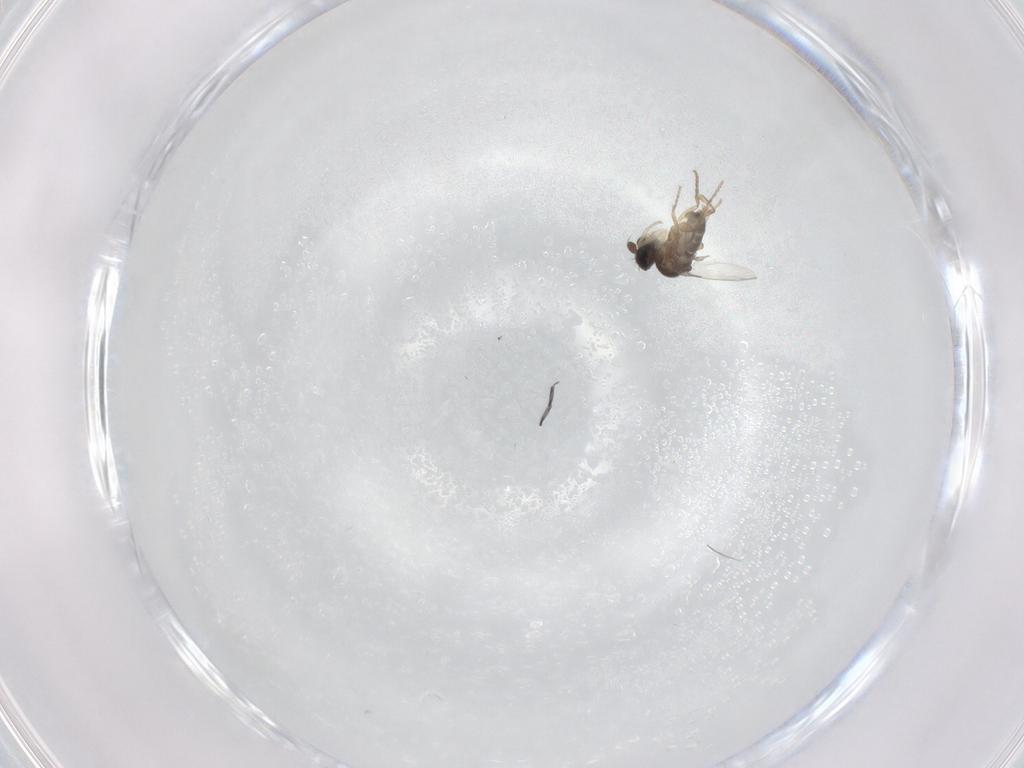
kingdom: Animalia
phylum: Arthropoda
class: Insecta
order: Diptera
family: Phoridae
